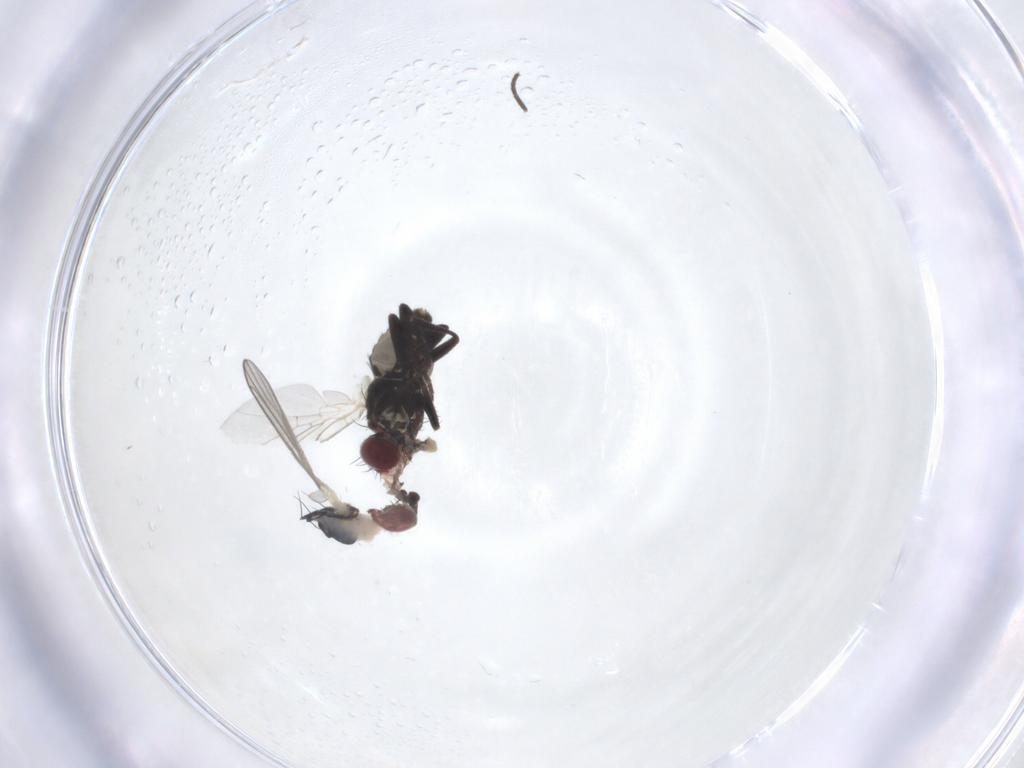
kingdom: Animalia
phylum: Arthropoda
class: Insecta
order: Diptera
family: Agromyzidae
